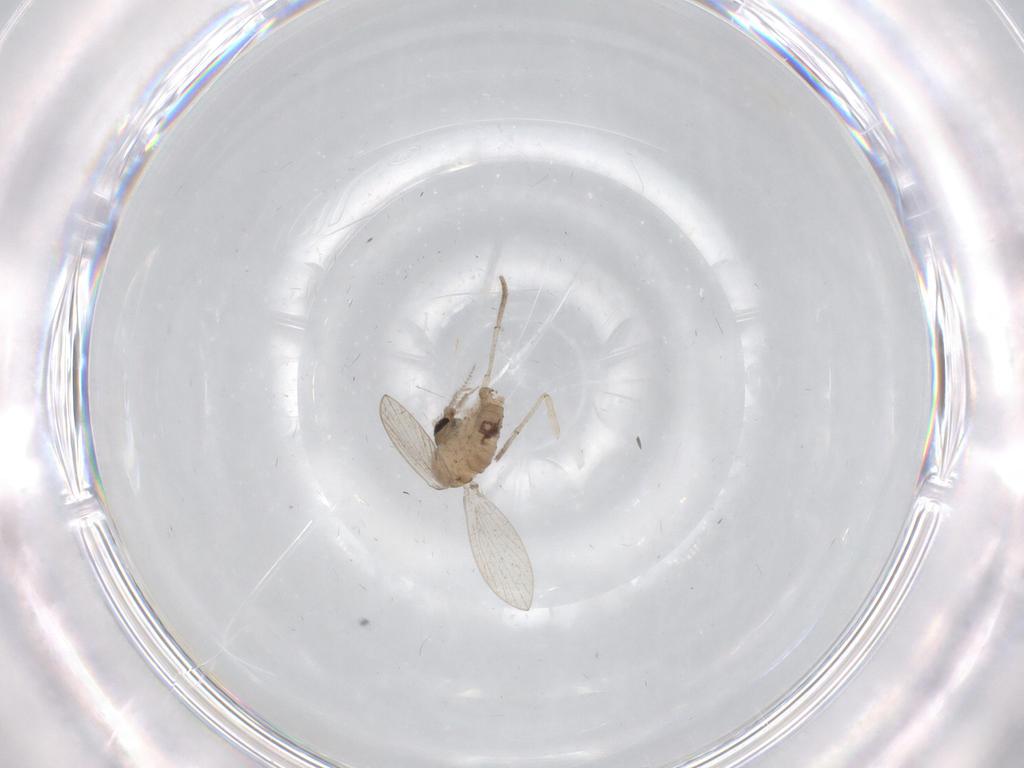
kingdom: Animalia
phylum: Arthropoda
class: Insecta
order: Diptera
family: Psychodidae
